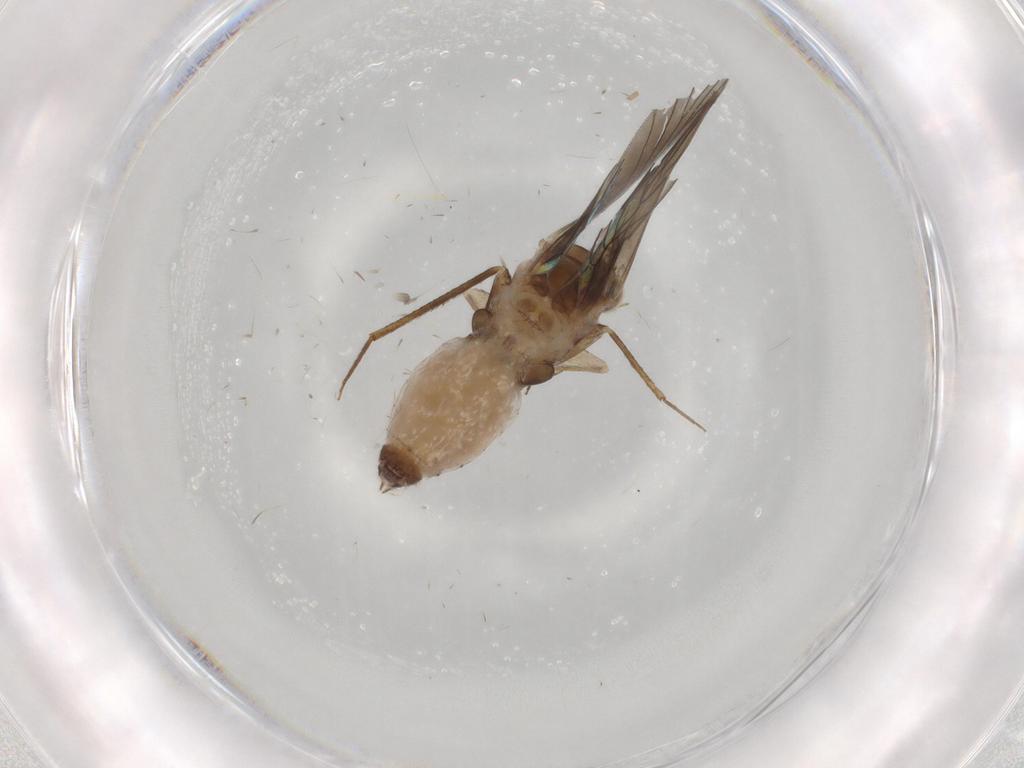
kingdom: Animalia
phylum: Arthropoda
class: Insecta
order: Psocodea
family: Lepidopsocidae
